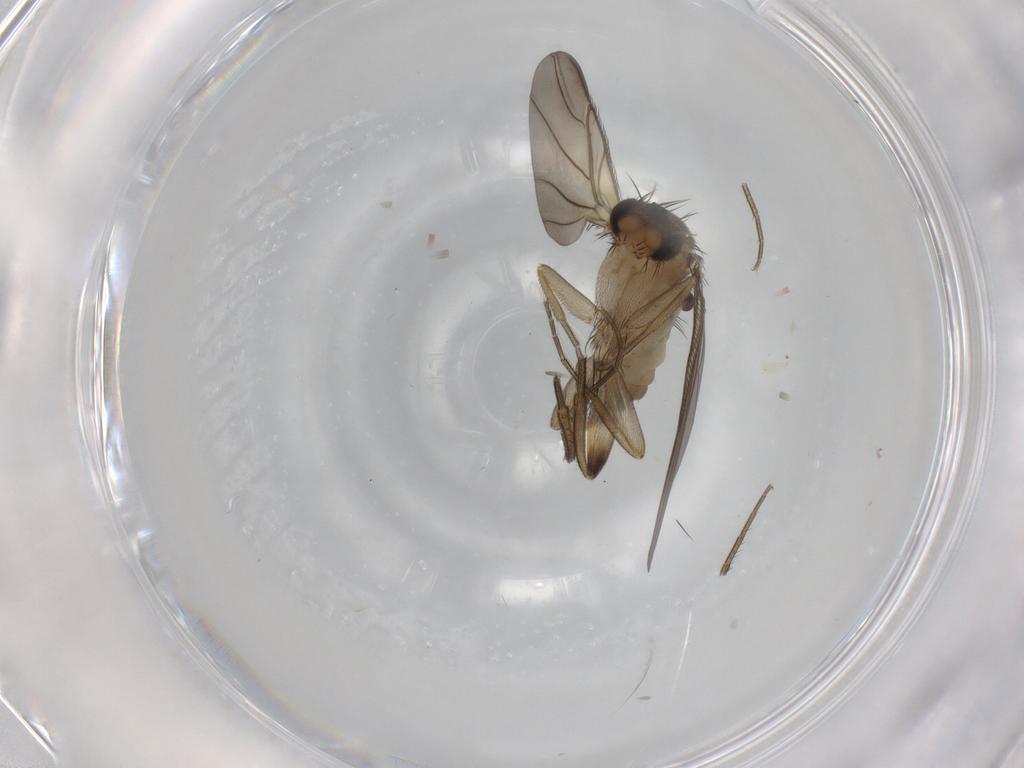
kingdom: Animalia
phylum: Arthropoda
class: Insecta
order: Diptera
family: Phoridae
